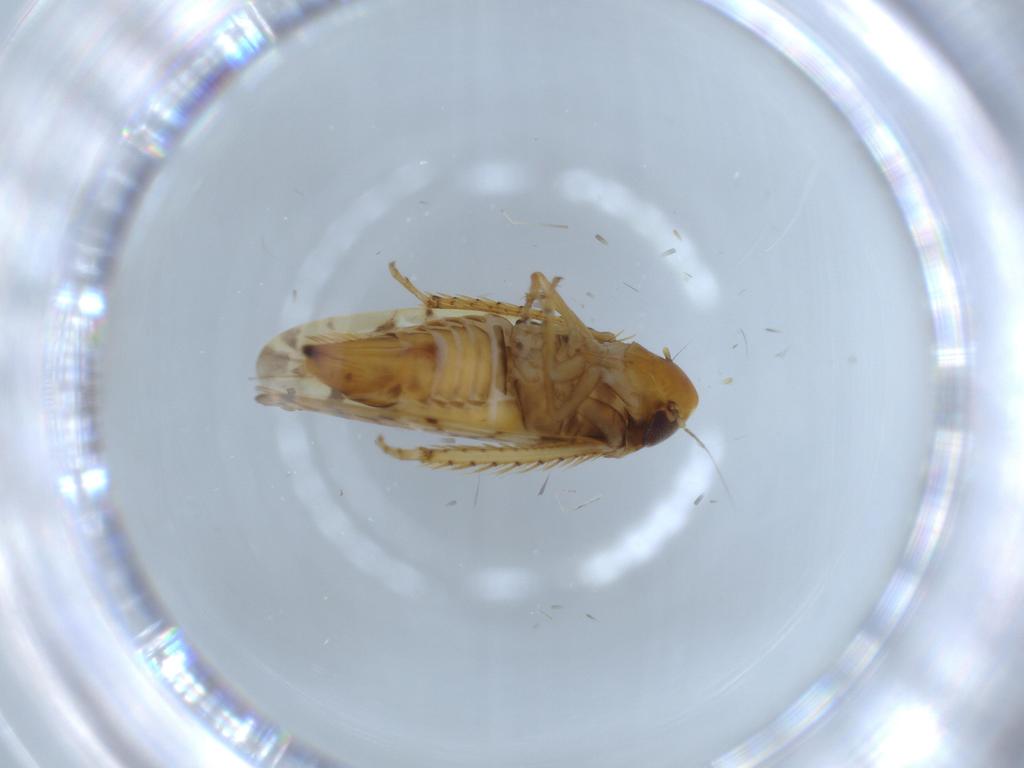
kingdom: Animalia
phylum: Arthropoda
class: Insecta
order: Hemiptera
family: Cicadellidae
